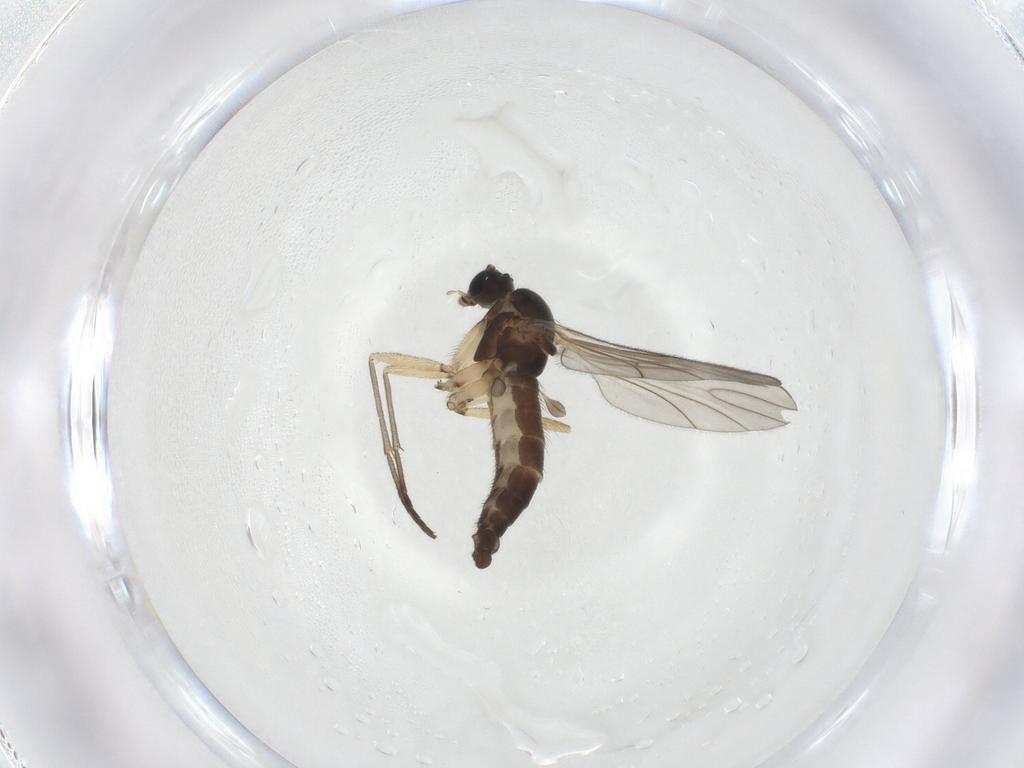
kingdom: Animalia
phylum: Arthropoda
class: Insecta
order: Diptera
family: Sciaridae
